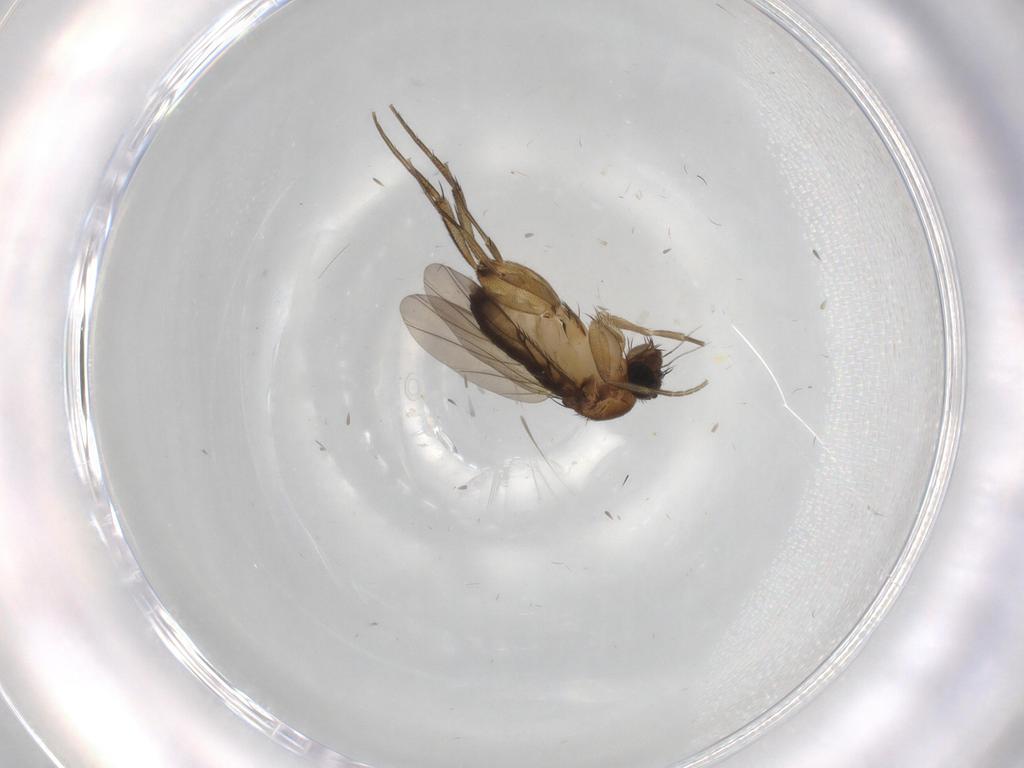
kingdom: Animalia
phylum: Arthropoda
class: Insecta
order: Diptera
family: Phoridae
